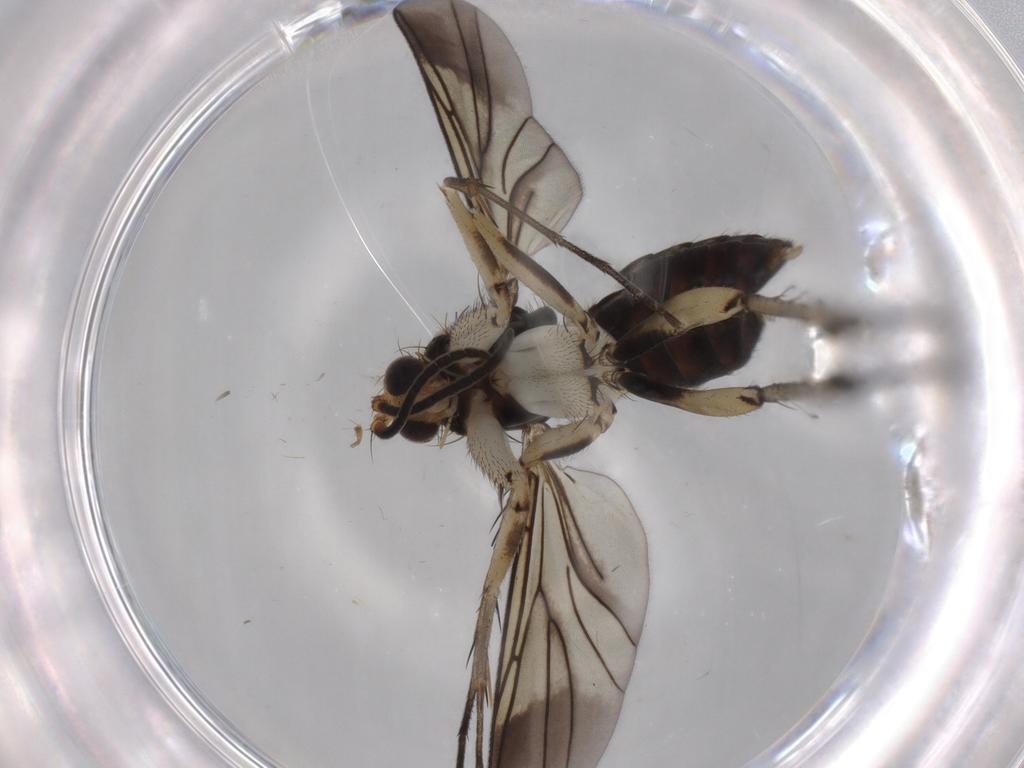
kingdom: Animalia
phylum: Arthropoda
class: Insecta
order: Diptera
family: Mycetophilidae
